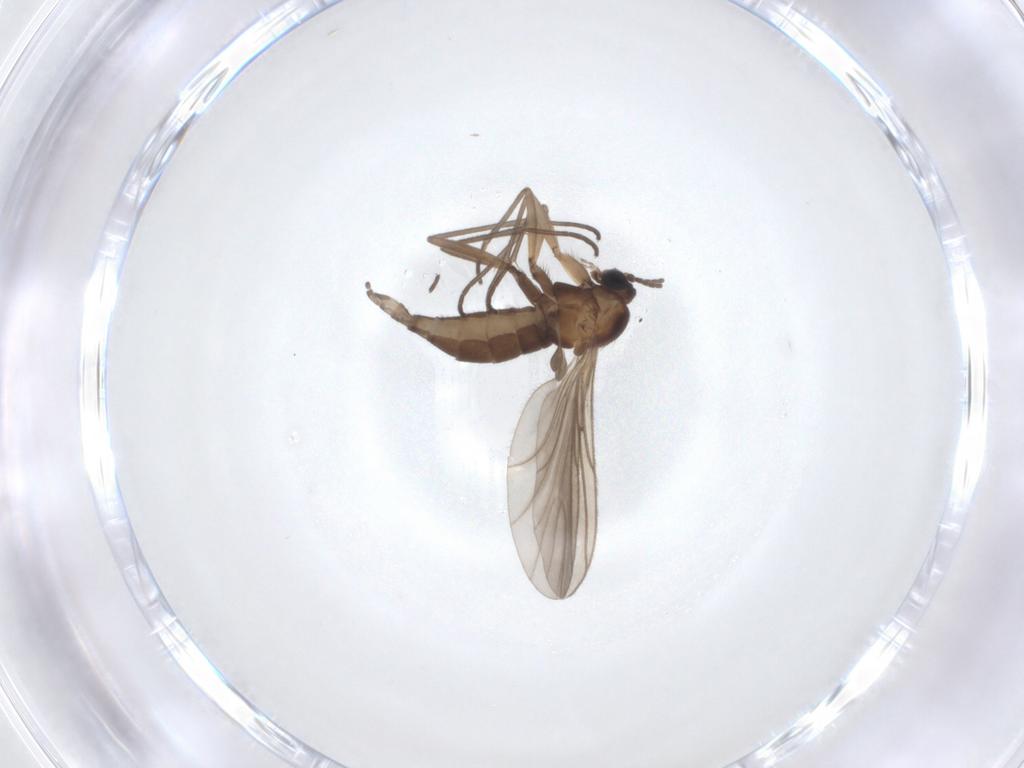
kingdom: Animalia
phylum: Arthropoda
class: Insecta
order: Diptera
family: Sciaridae
